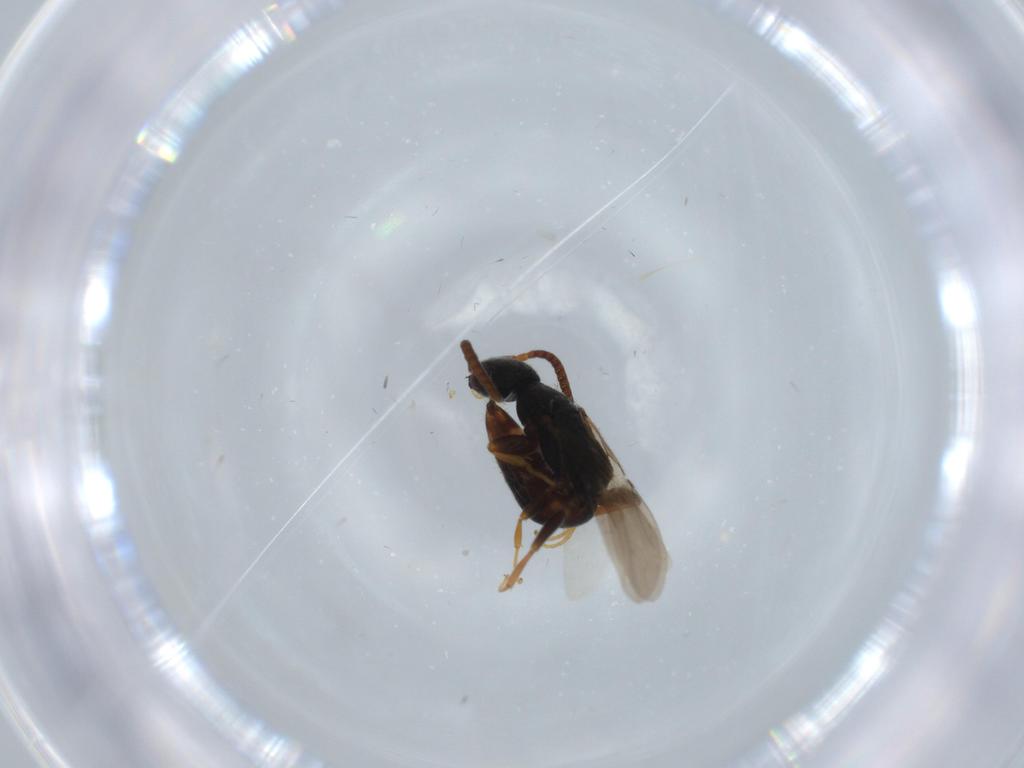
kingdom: Animalia
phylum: Arthropoda
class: Insecta
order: Hymenoptera
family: Bethylidae
